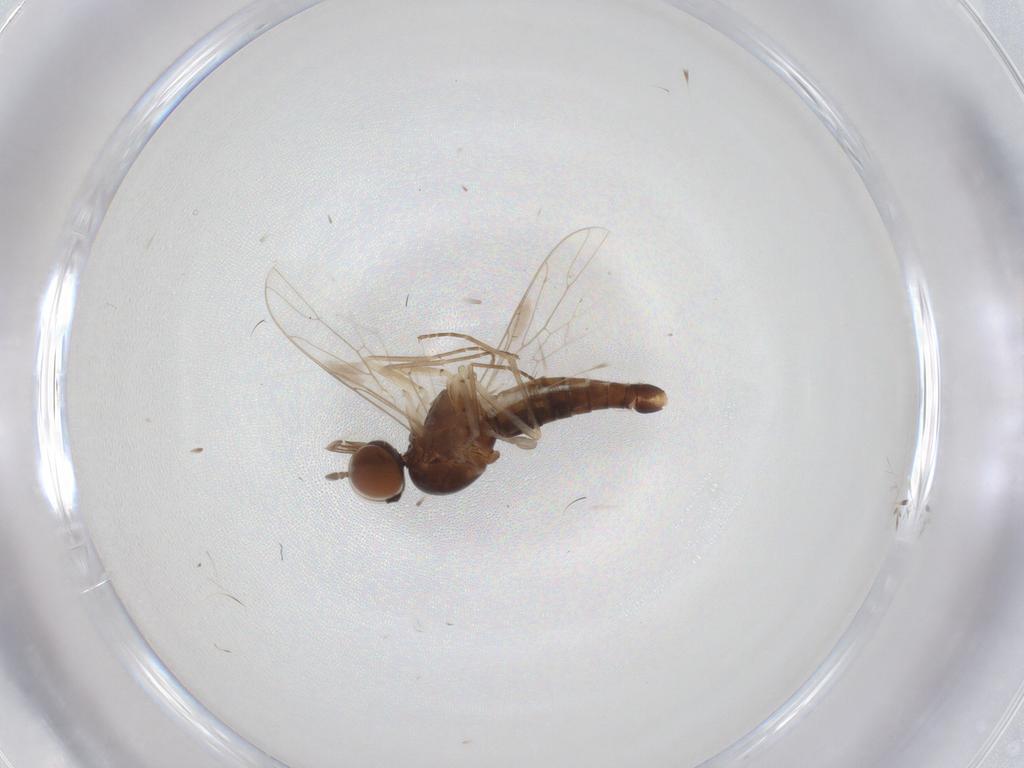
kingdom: Animalia
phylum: Arthropoda
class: Insecta
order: Diptera
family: Scenopinidae
